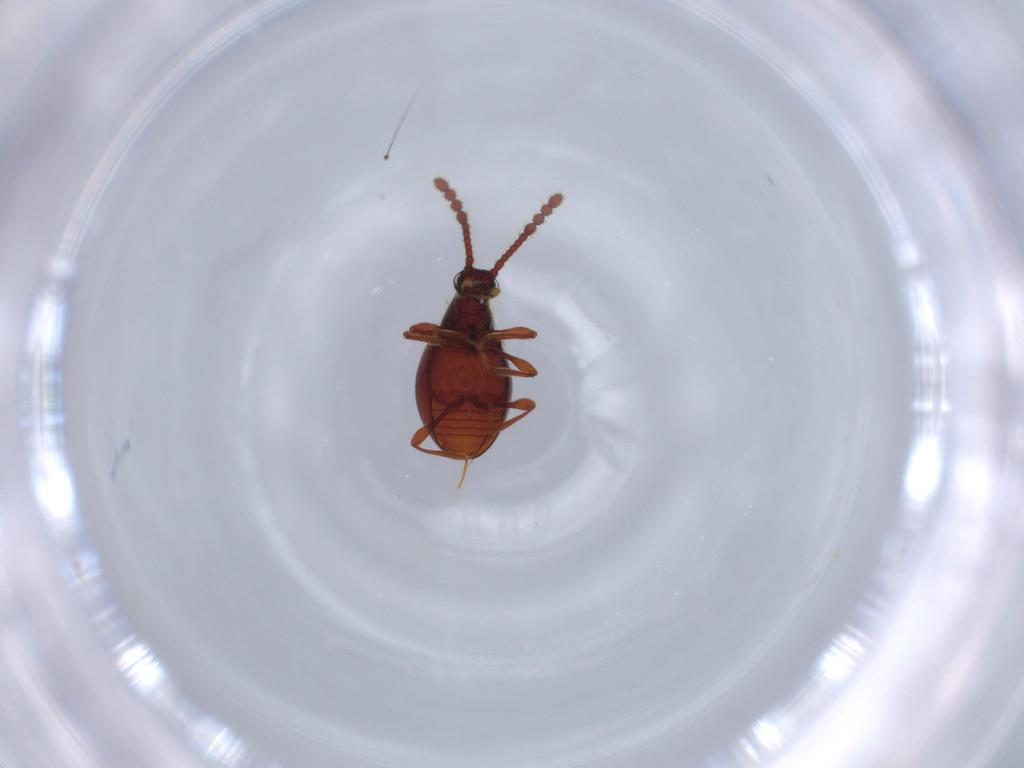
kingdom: Animalia
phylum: Arthropoda
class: Insecta
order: Coleoptera
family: Staphylinidae
